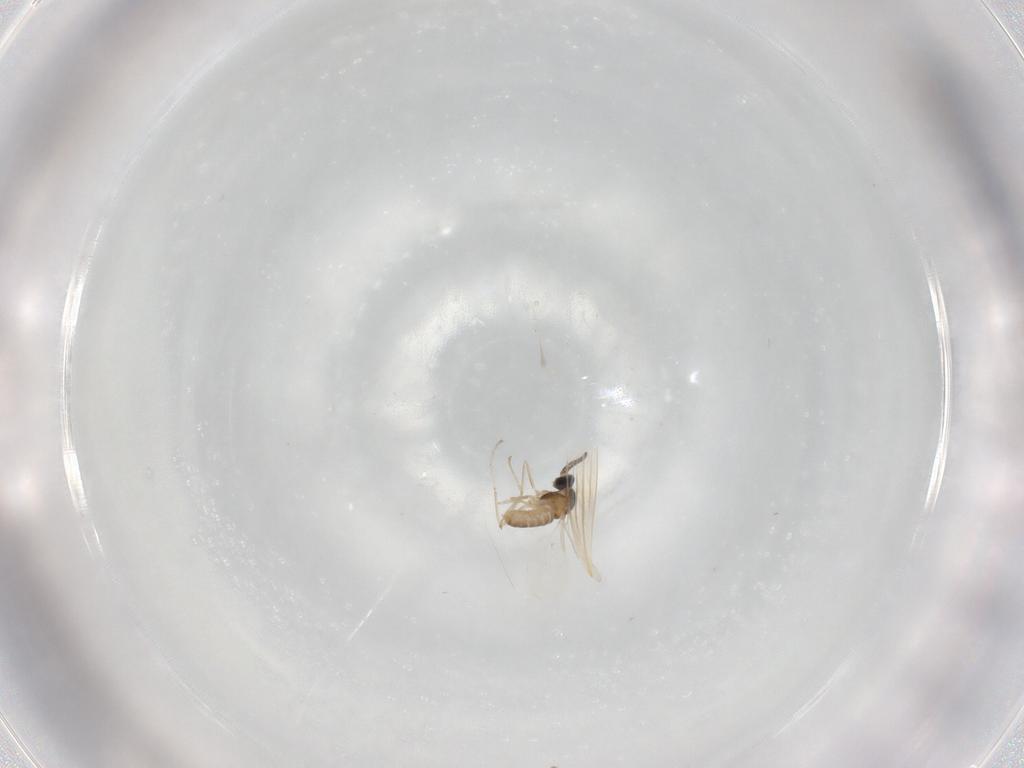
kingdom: Animalia
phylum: Arthropoda
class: Insecta
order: Diptera
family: Cecidomyiidae
